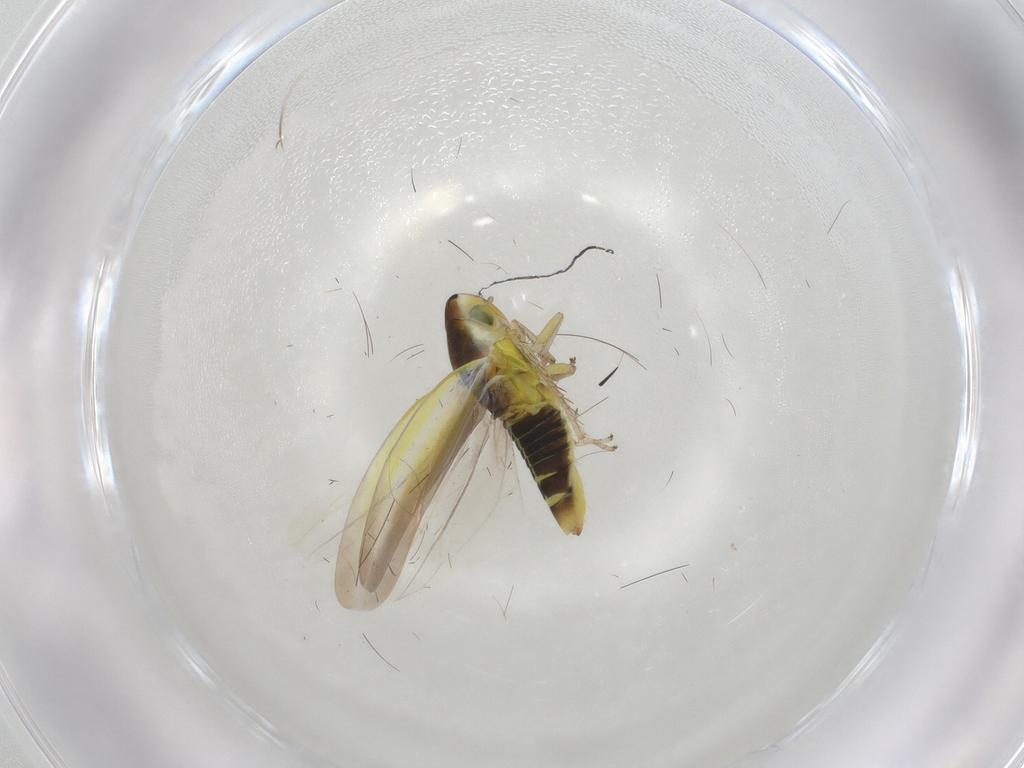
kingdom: Animalia
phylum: Arthropoda
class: Insecta
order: Hemiptera
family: Cicadellidae
